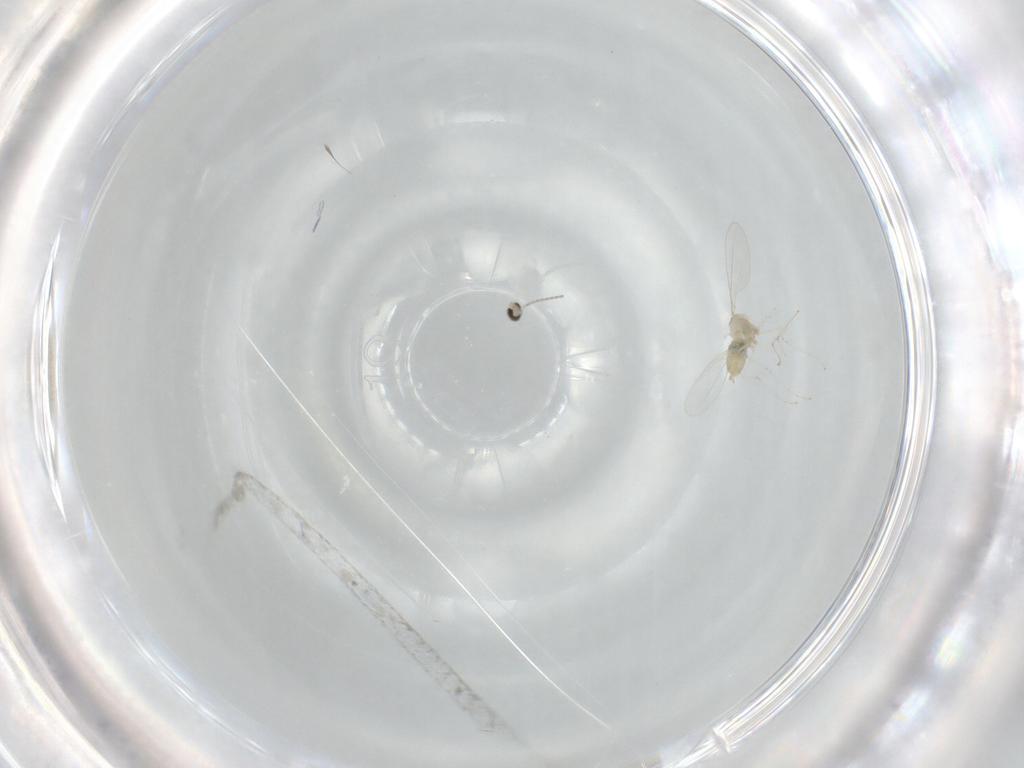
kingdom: Animalia
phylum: Arthropoda
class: Insecta
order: Diptera
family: Cecidomyiidae
